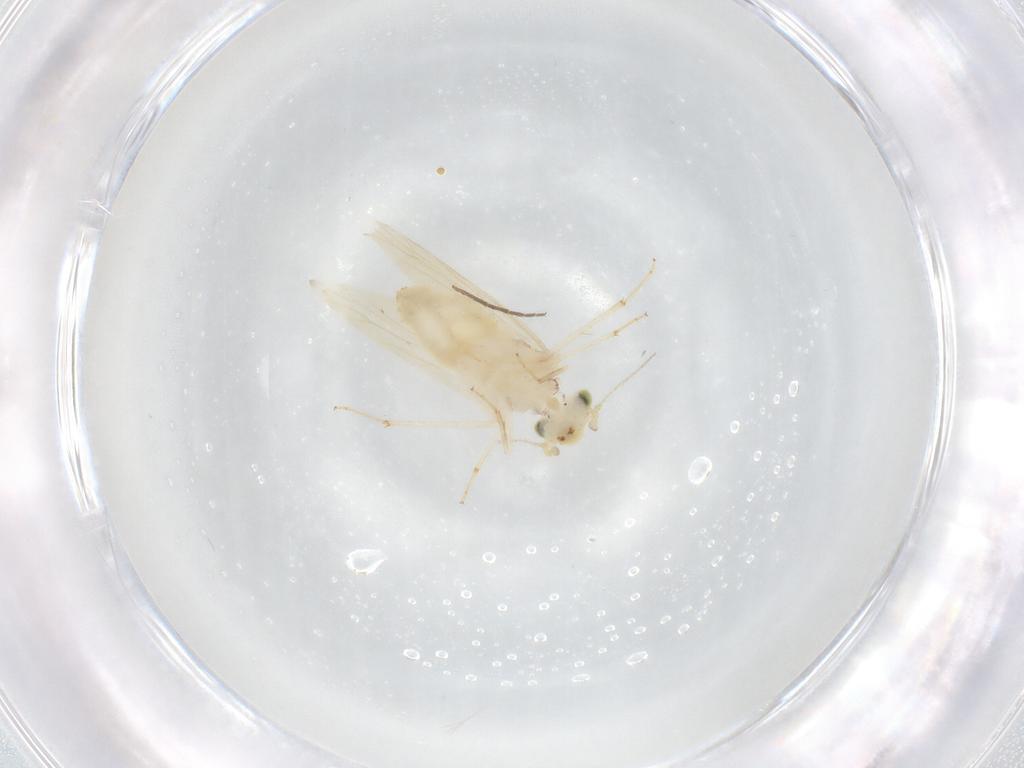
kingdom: Animalia
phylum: Arthropoda
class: Insecta
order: Psocodea
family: Lepidopsocidae
